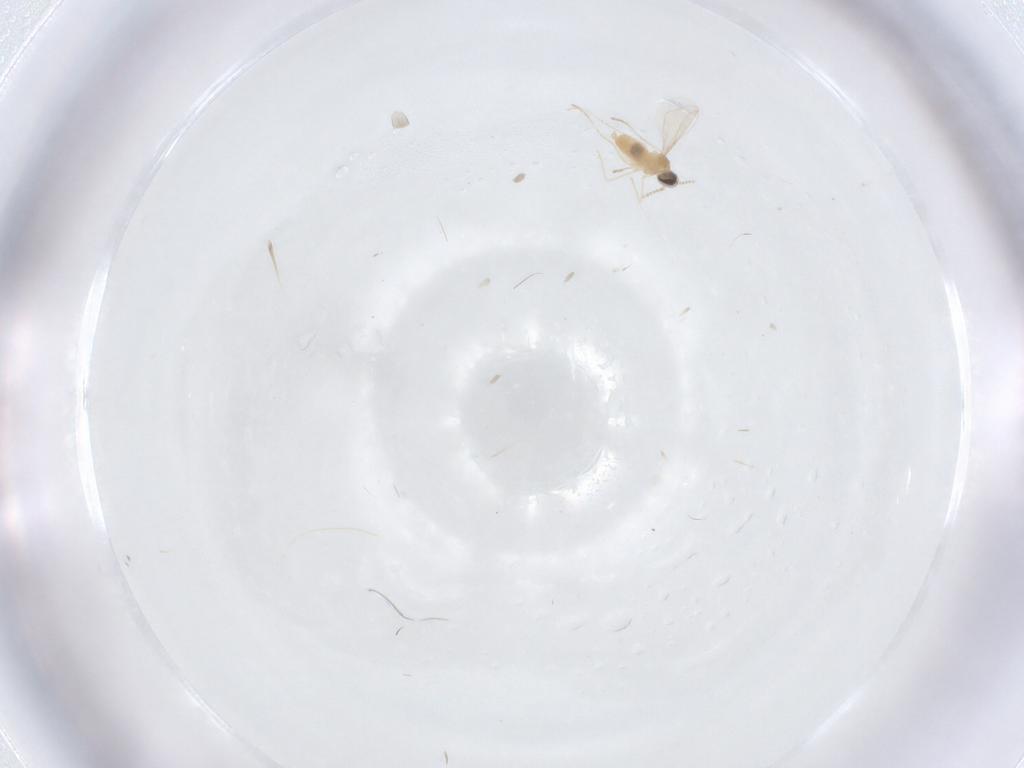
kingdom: Animalia
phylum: Arthropoda
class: Insecta
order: Diptera
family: Cecidomyiidae
